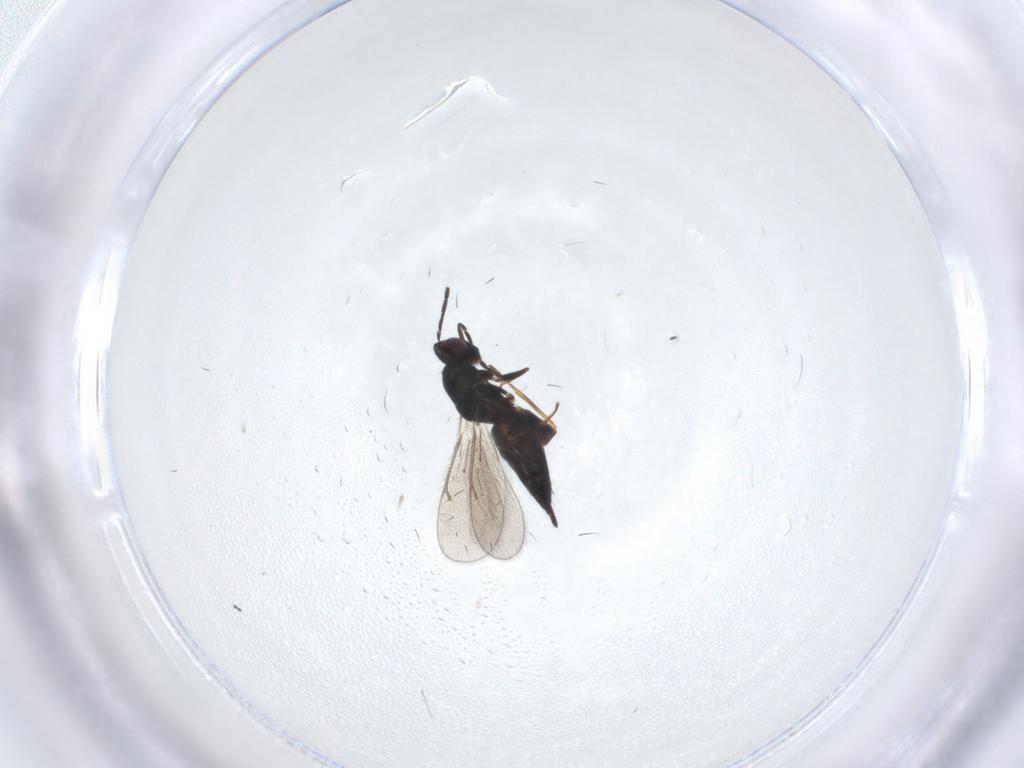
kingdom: Animalia
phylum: Arthropoda
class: Insecta
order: Hymenoptera
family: Eulophidae
